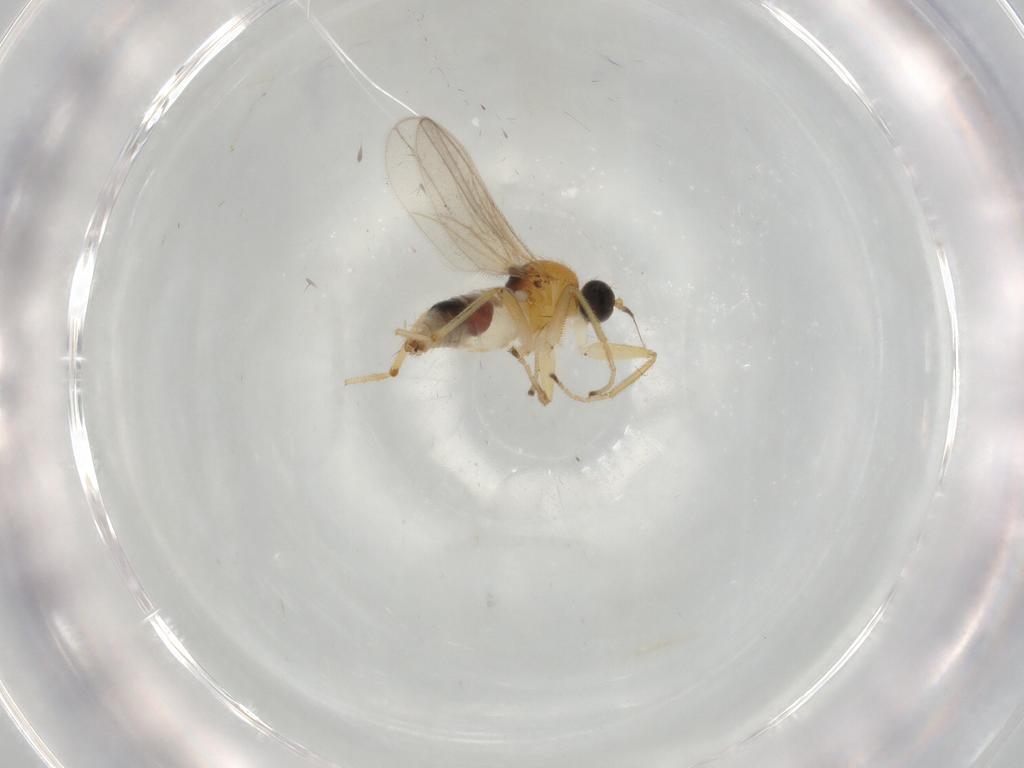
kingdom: Animalia
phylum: Arthropoda
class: Insecta
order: Diptera
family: Hybotidae
